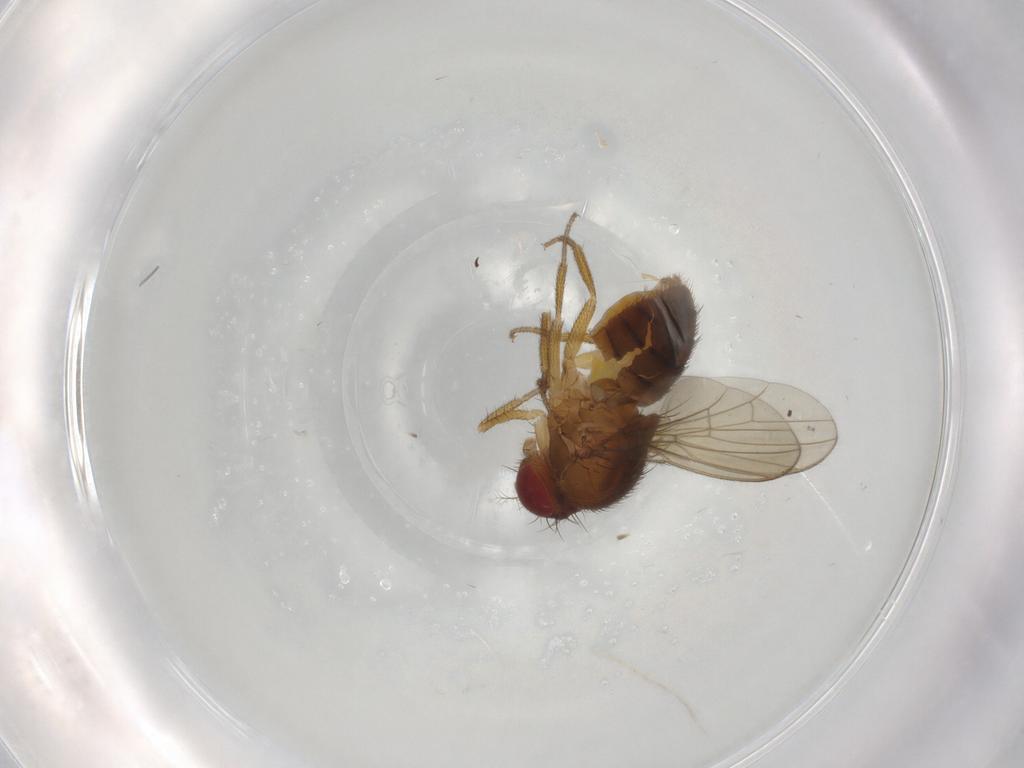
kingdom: Animalia
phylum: Arthropoda
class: Insecta
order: Diptera
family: Drosophilidae
